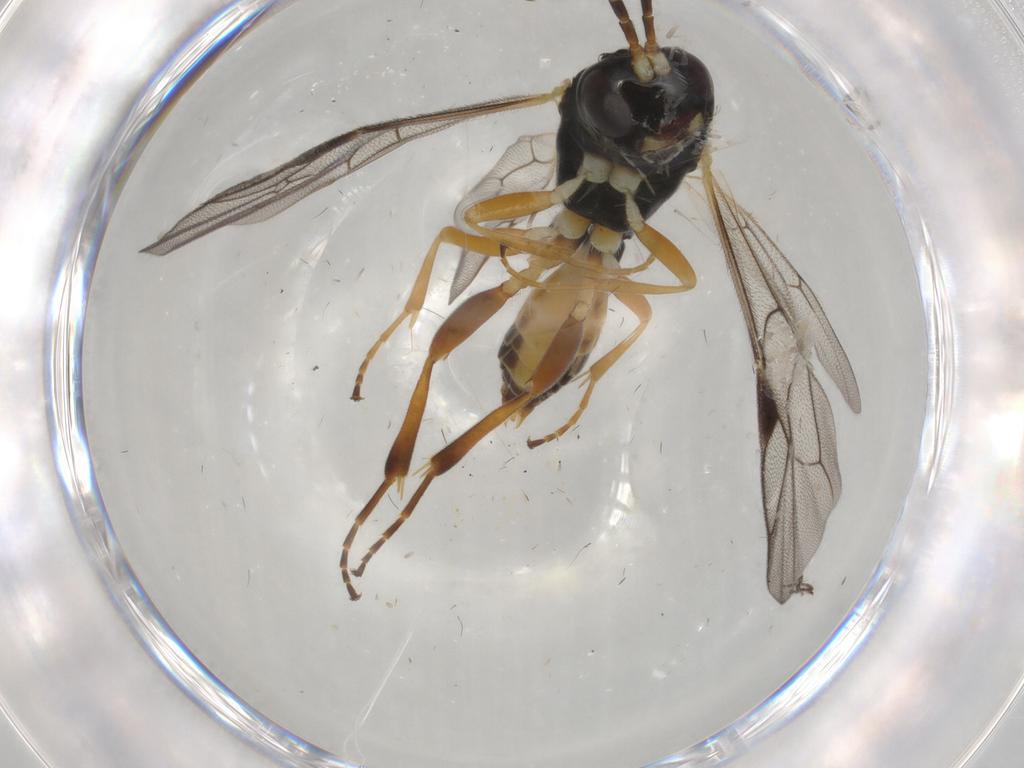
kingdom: Animalia
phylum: Arthropoda
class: Insecta
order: Hymenoptera
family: Ichneumonidae
